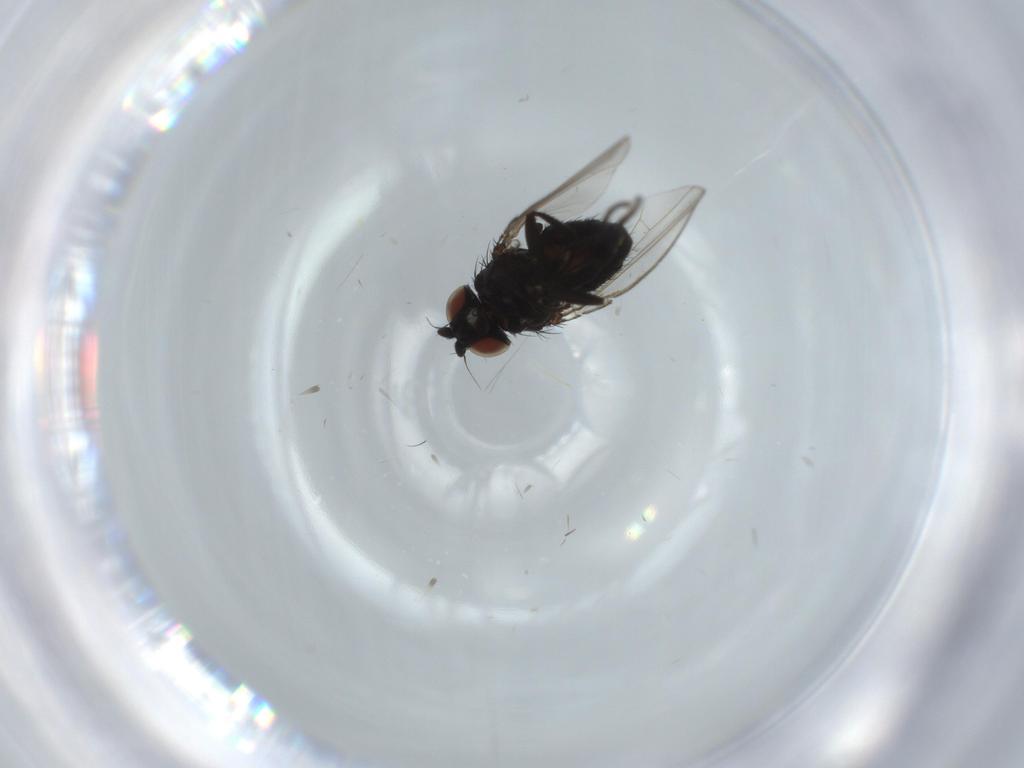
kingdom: Animalia
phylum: Arthropoda
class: Insecta
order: Diptera
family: Milichiidae
